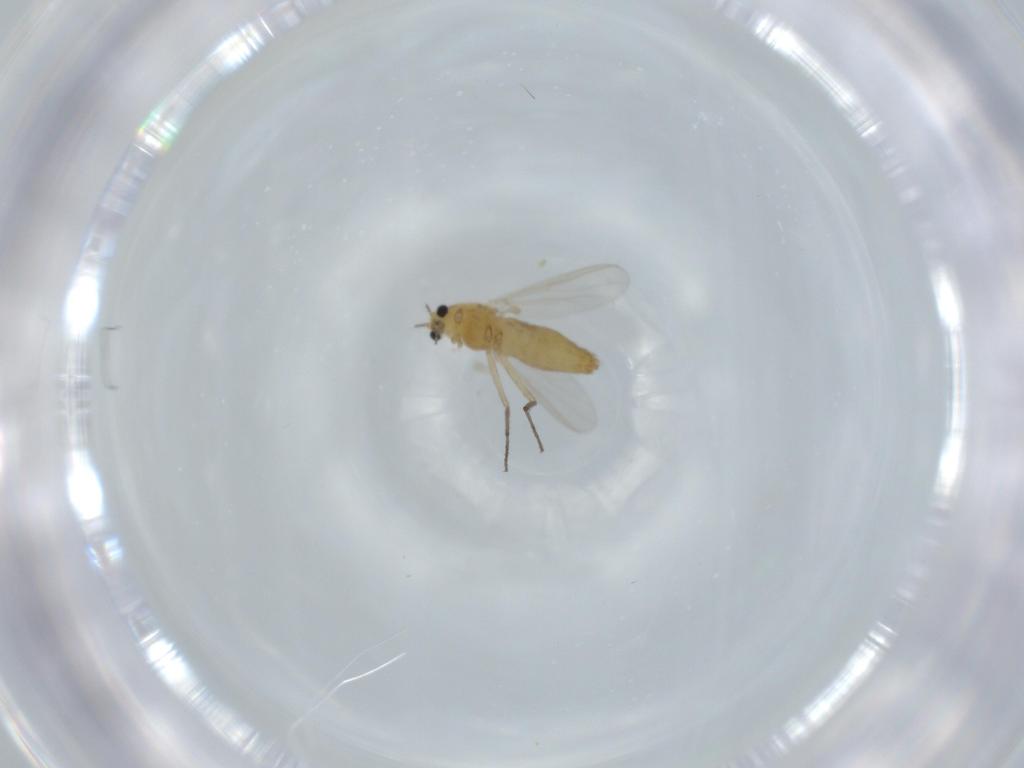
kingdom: Animalia
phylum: Arthropoda
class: Insecta
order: Diptera
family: Chironomidae
